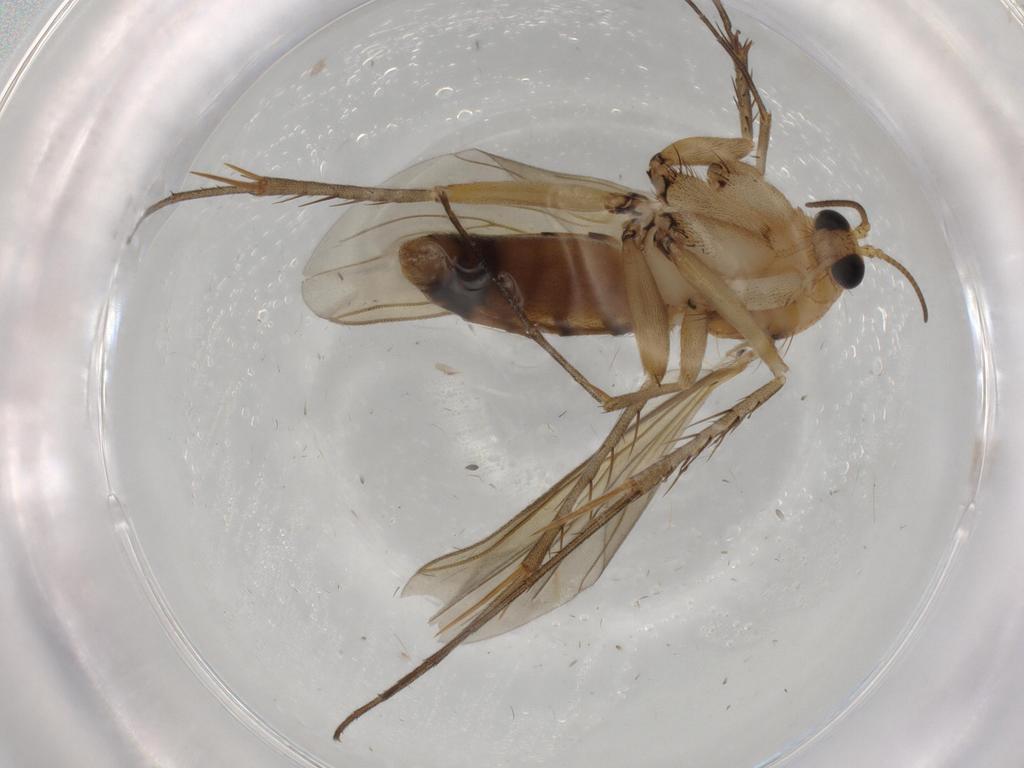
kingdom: Animalia
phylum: Arthropoda
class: Insecta
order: Diptera
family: Mycetophilidae
